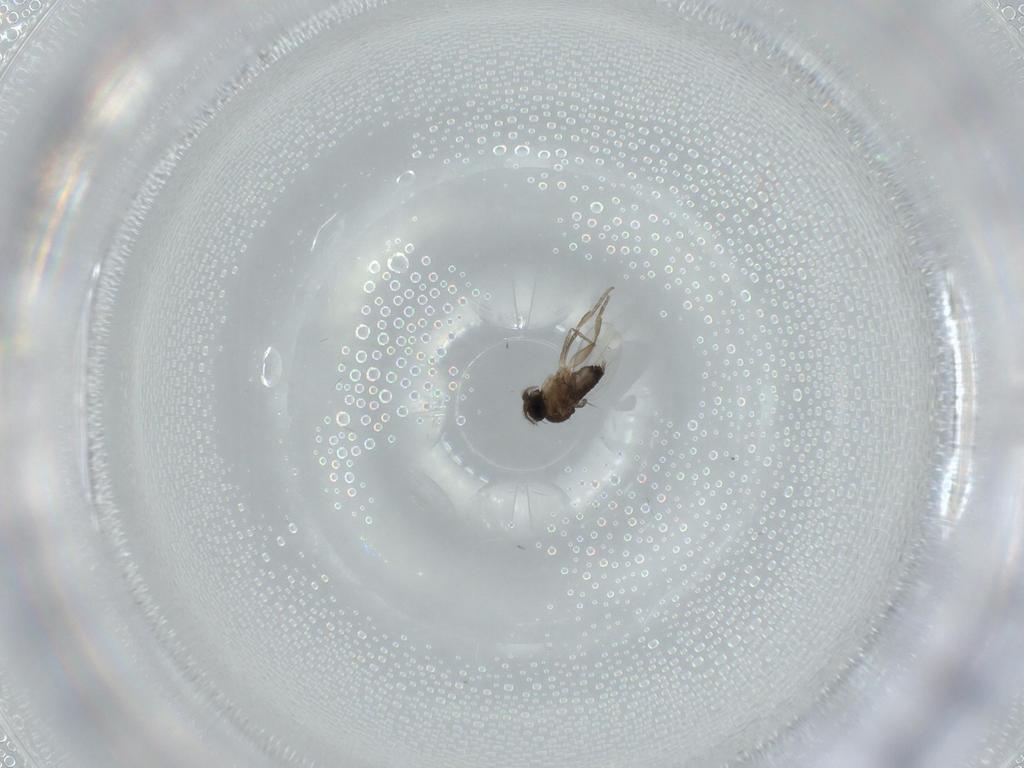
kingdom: Animalia
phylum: Arthropoda
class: Insecta
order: Diptera
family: Phoridae
